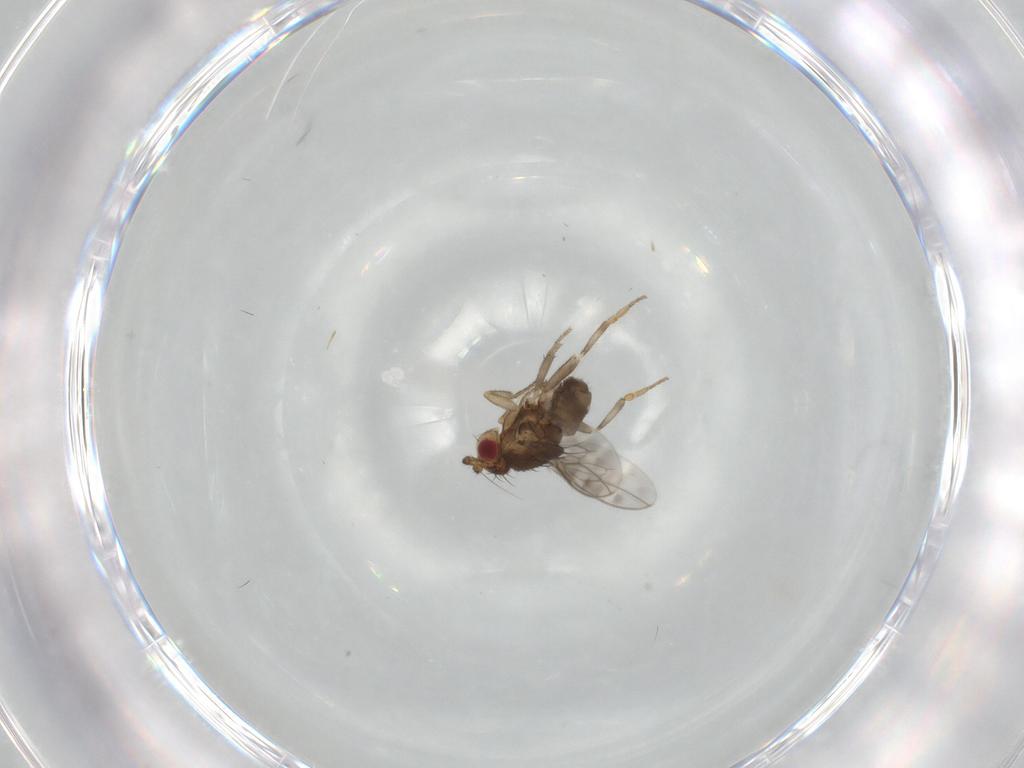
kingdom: Animalia
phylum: Arthropoda
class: Insecta
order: Diptera
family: Sphaeroceridae
